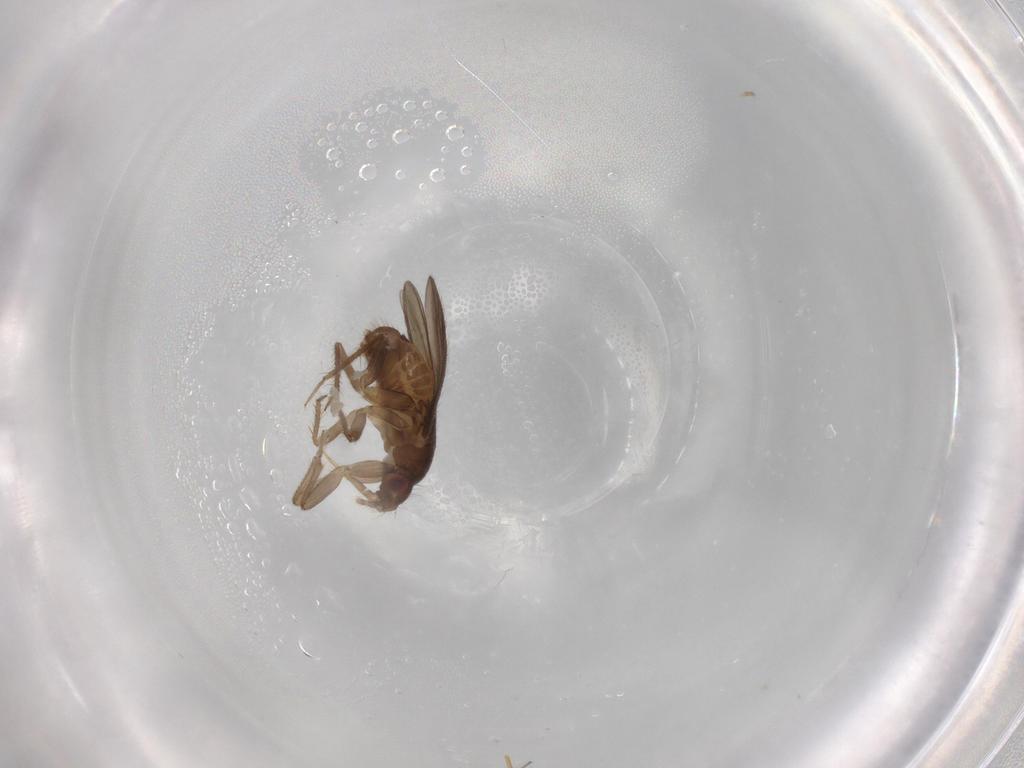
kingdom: Animalia
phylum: Arthropoda
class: Insecta
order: Hemiptera
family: Ceratocombidae
